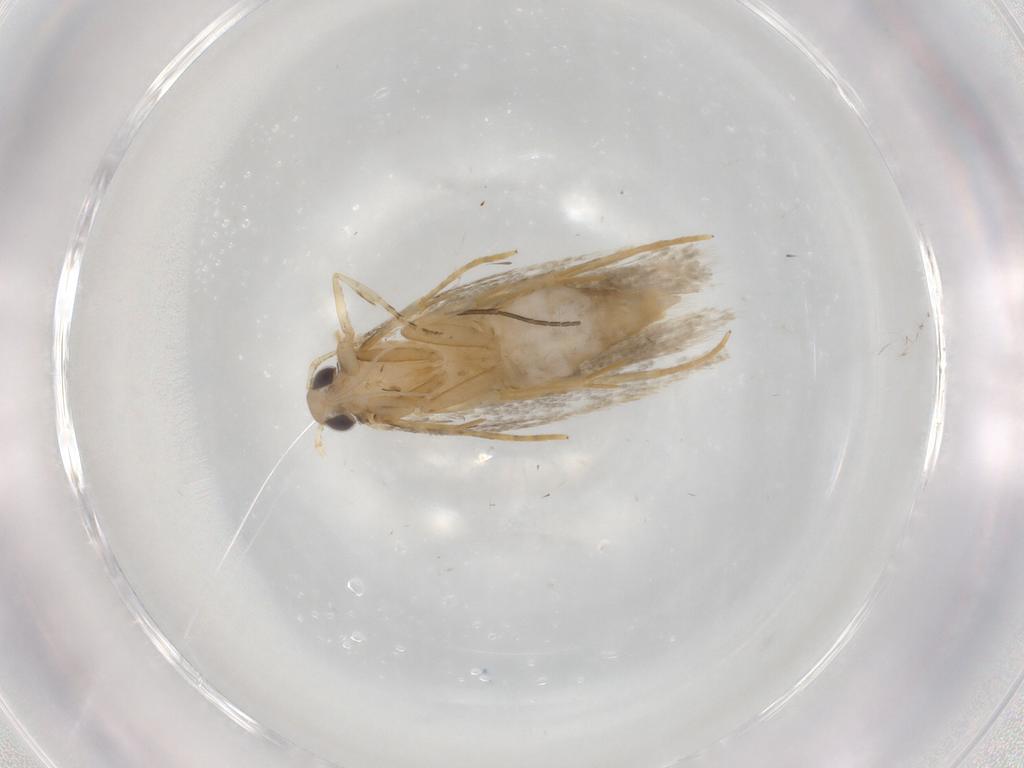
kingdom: Animalia
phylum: Arthropoda
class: Insecta
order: Lepidoptera
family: Autostichidae
